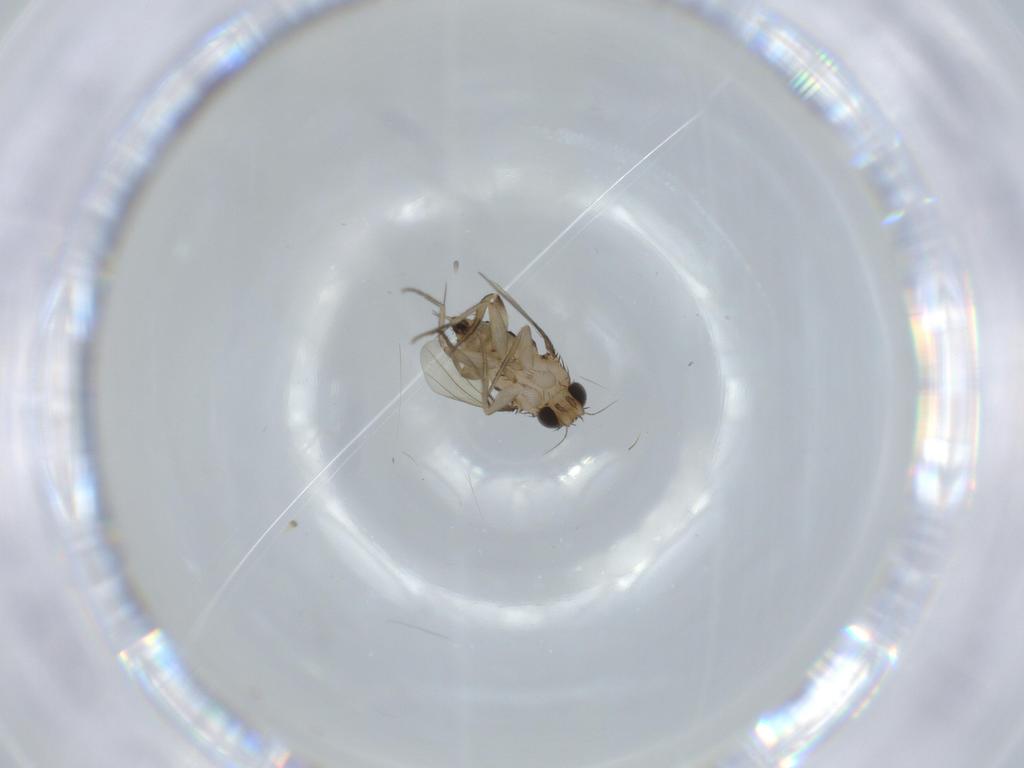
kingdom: Animalia
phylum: Arthropoda
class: Insecta
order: Diptera
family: Phoridae
